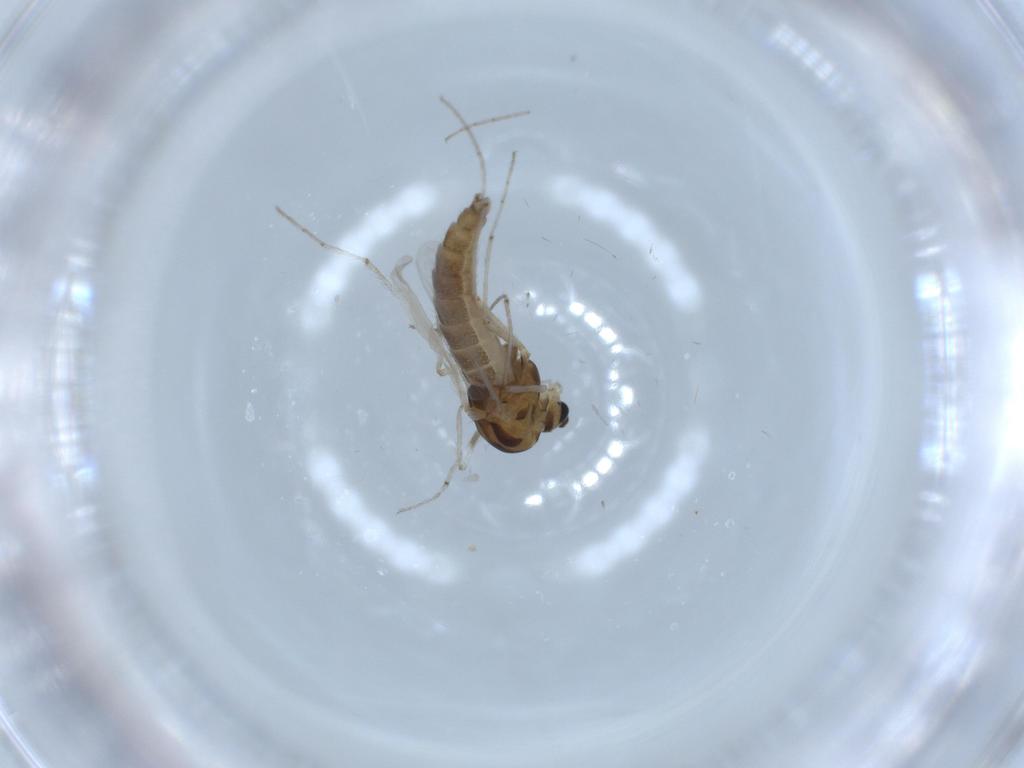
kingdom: Animalia
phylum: Arthropoda
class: Insecta
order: Diptera
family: Chironomidae
